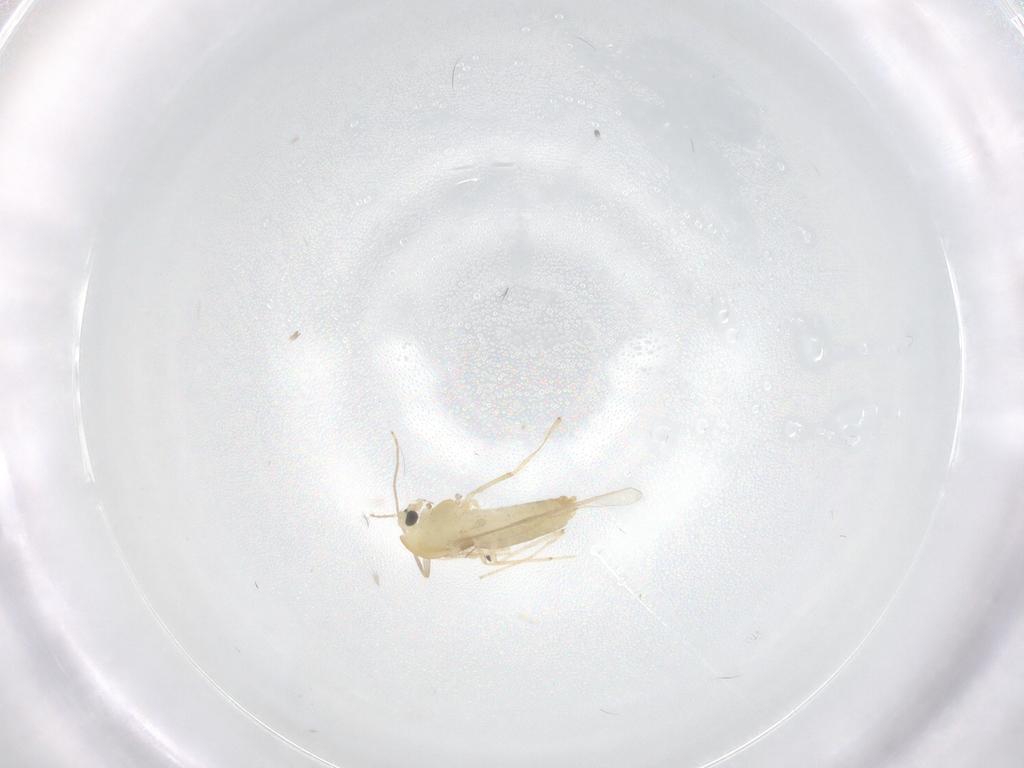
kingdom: Animalia
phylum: Arthropoda
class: Insecta
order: Diptera
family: Chironomidae
